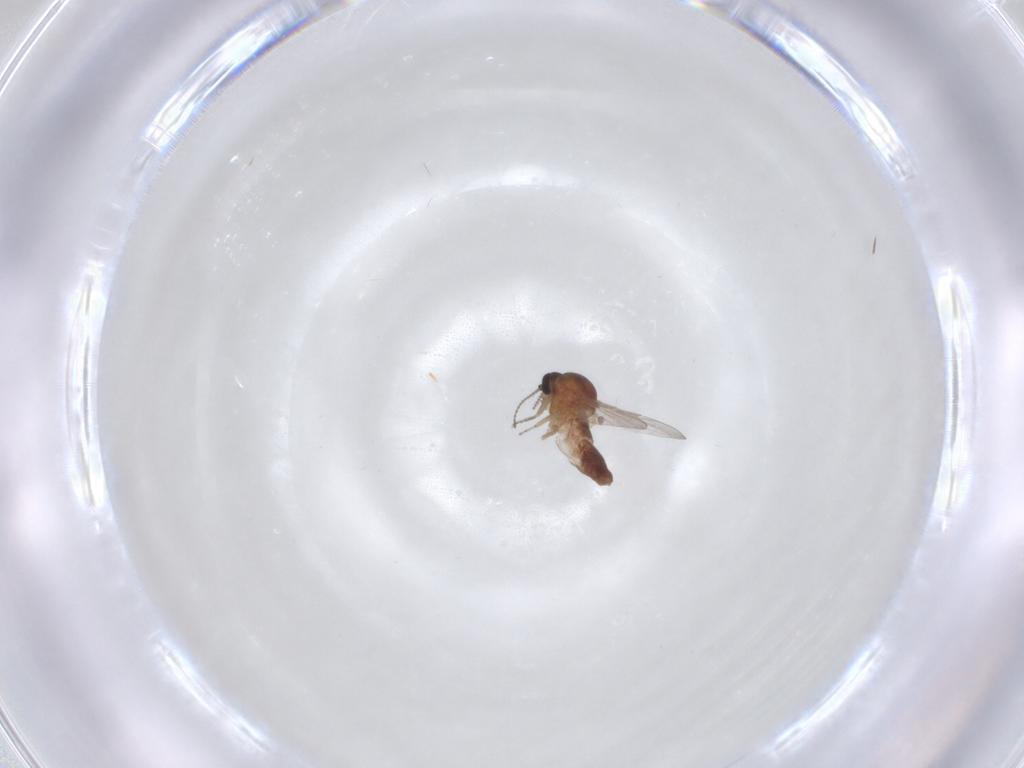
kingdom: Animalia
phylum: Arthropoda
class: Insecta
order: Diptera
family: Ceratopogonidae
